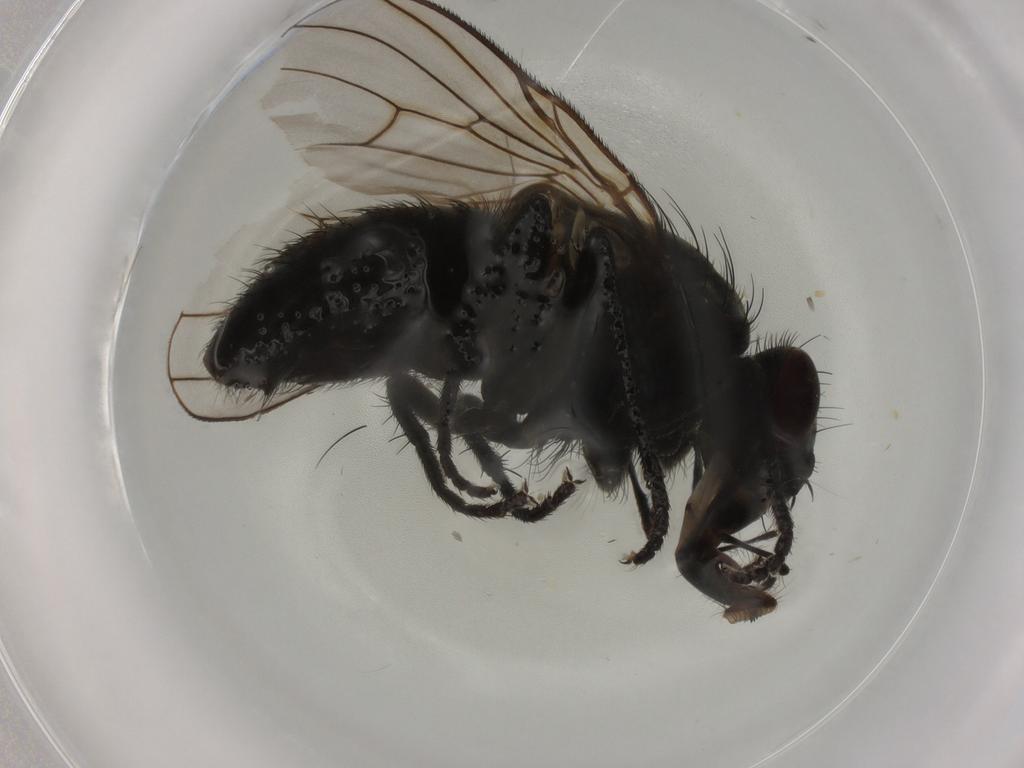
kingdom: Animalia
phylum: Arthropoda
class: Insecta
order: Diptera
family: Muscidae
